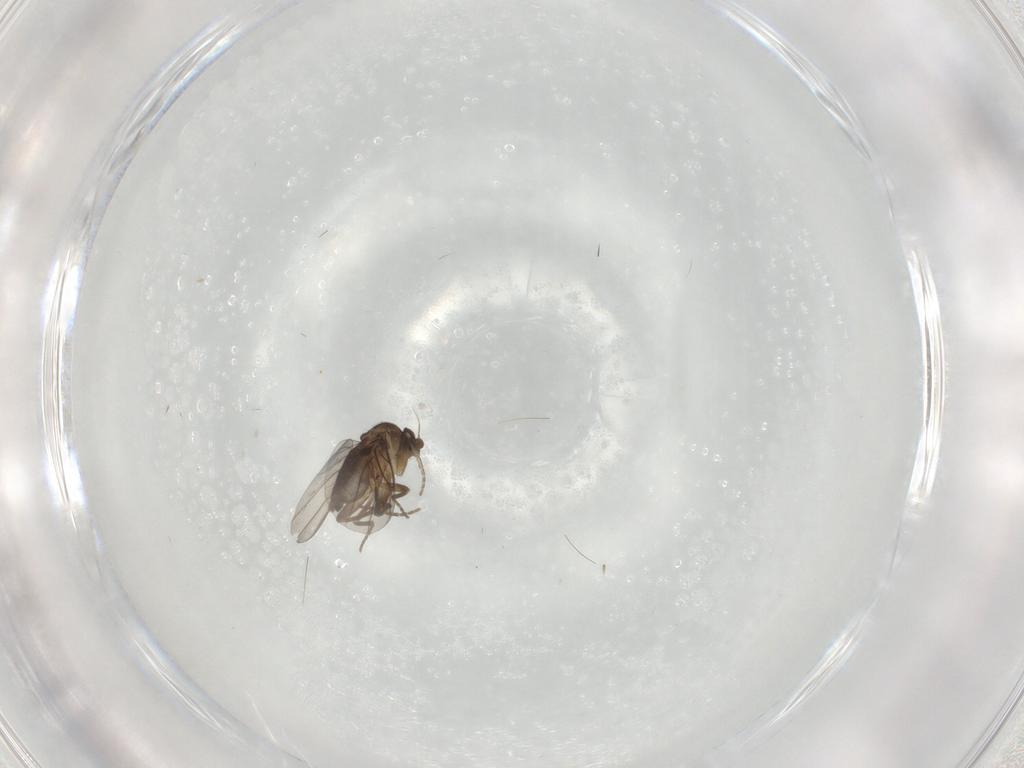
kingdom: Animalia
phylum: Arthropoda
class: Insecta
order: Diptera
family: Phoridae
